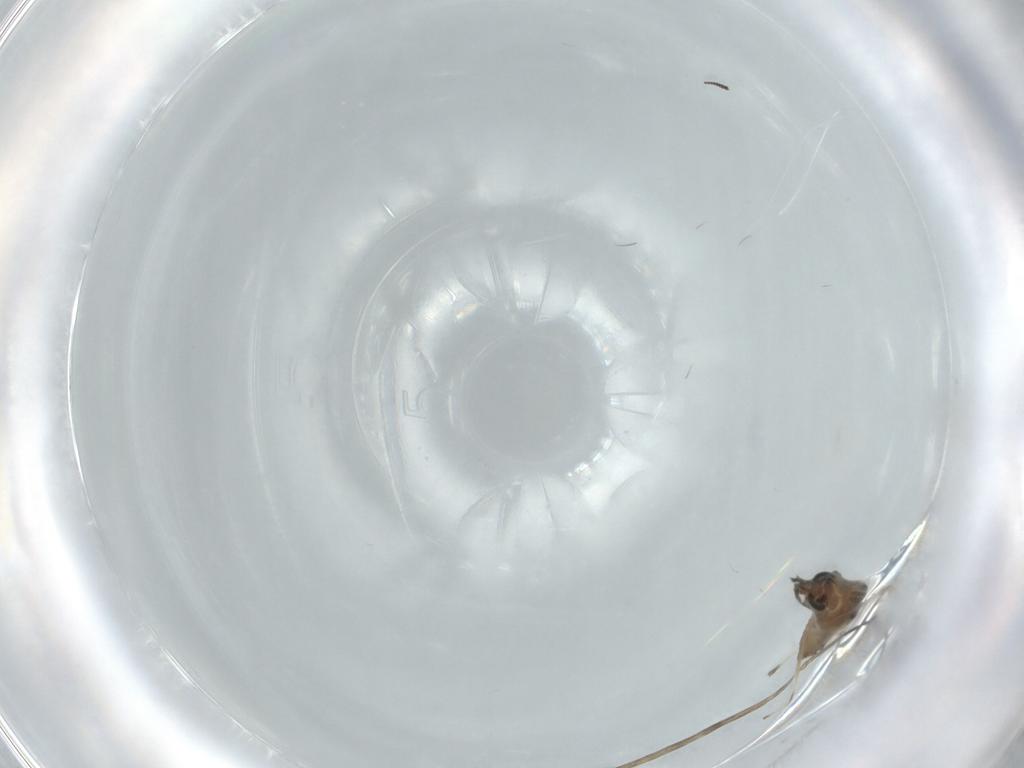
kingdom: Animalia
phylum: Arthropoda
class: Insecta
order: Diptera
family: Chironomidae
